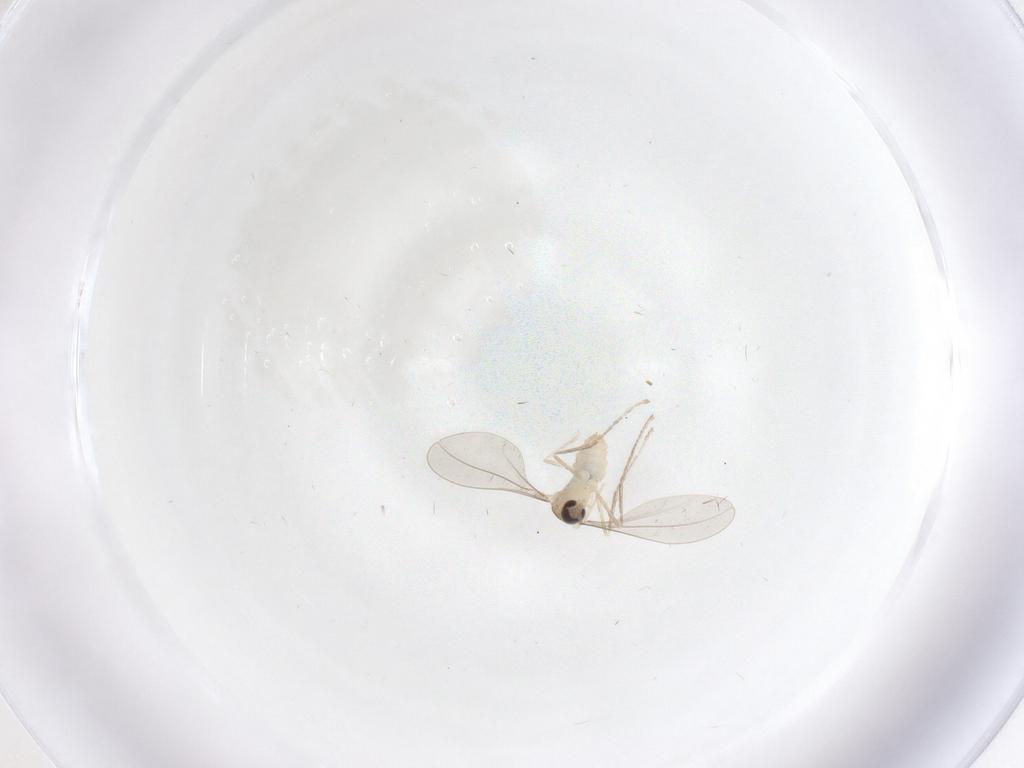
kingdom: Animalia
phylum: Arthropoda
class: Insecta
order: Diptera
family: Cecidomyiidae
